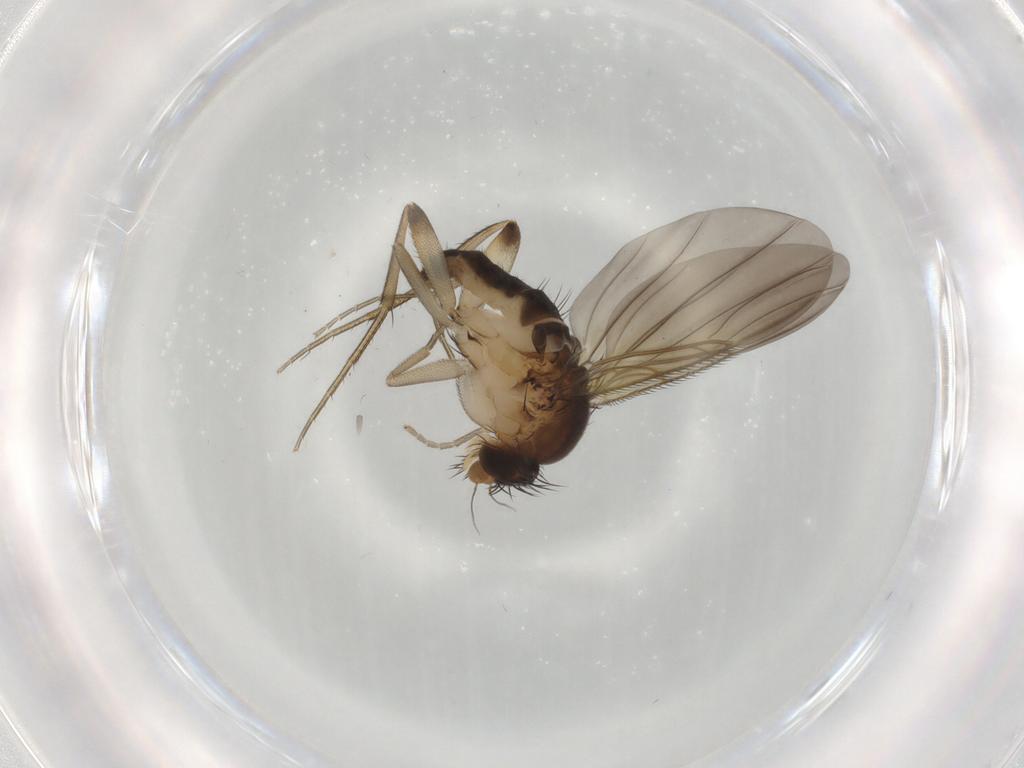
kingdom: Animalia
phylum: Arthropoda
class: Insecta
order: Diptera
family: Phoridae
